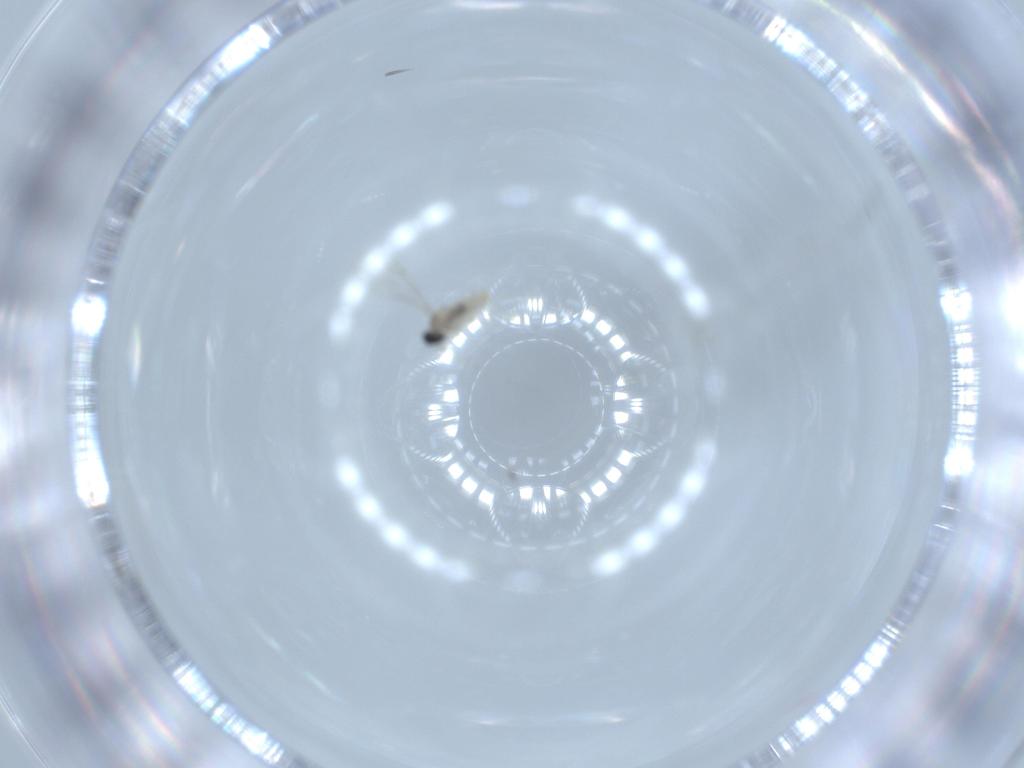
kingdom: Animalia
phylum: Arthropoda
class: Insecta
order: Diptera
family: Cecidomyiidae
